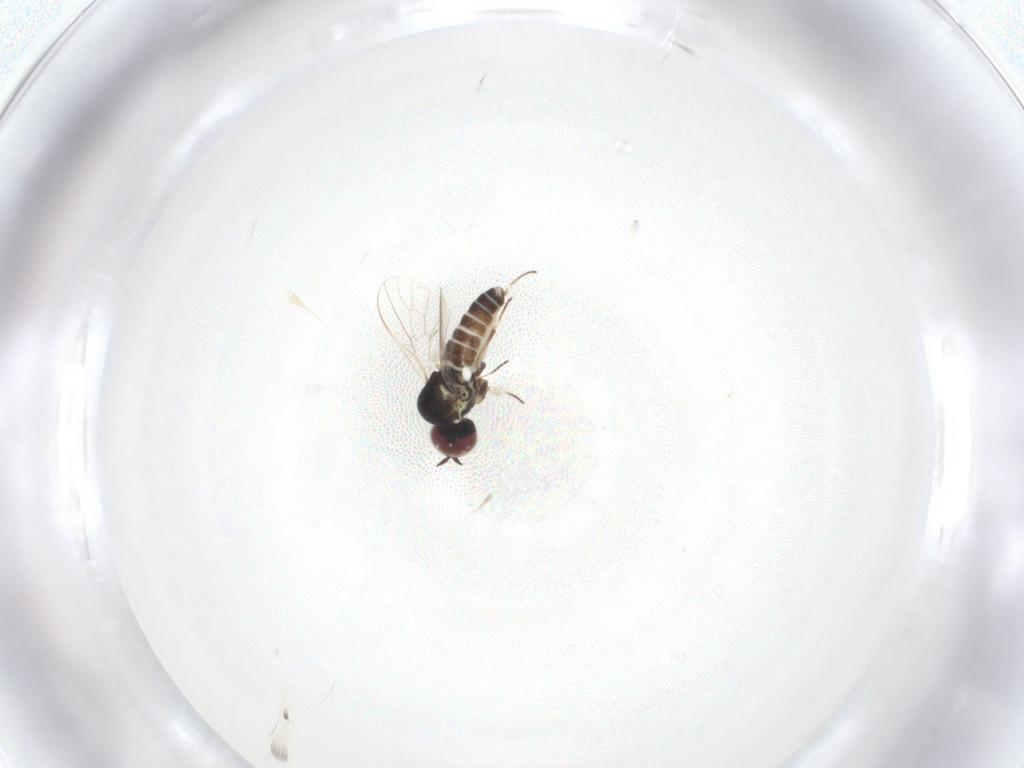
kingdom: Animalia
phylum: Arthropoda
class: Insecta
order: Diptera
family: Bombyliidae
